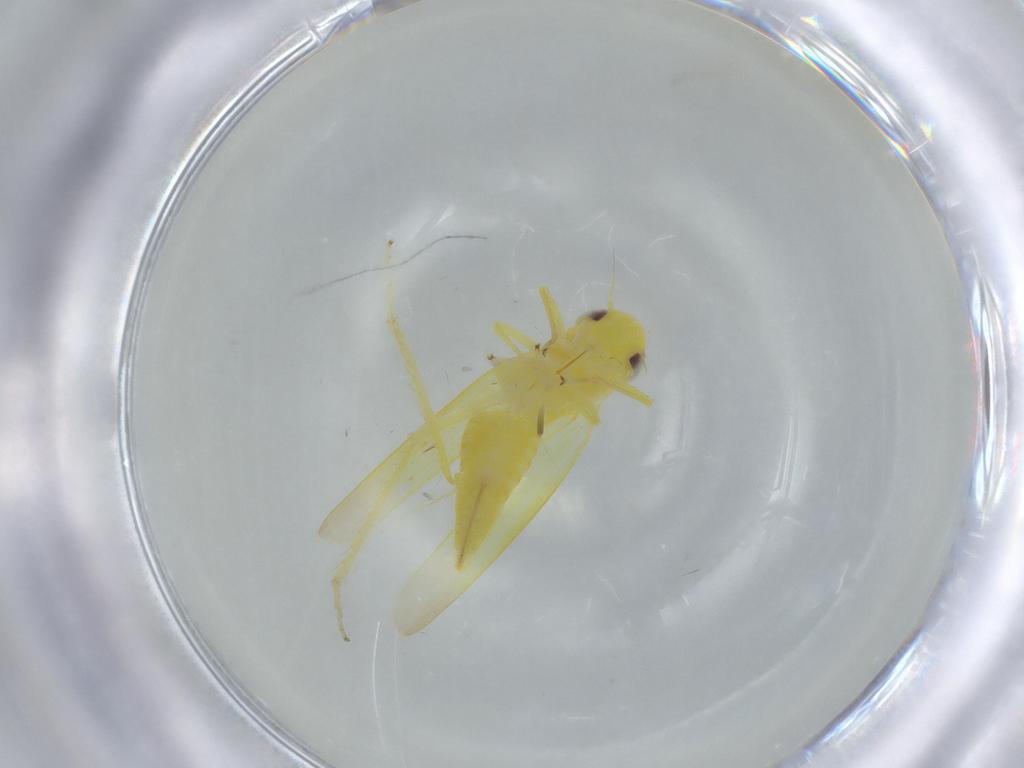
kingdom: Animalia
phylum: Arthropoda
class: Insecta
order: Hemiptera
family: Cicadellidae
